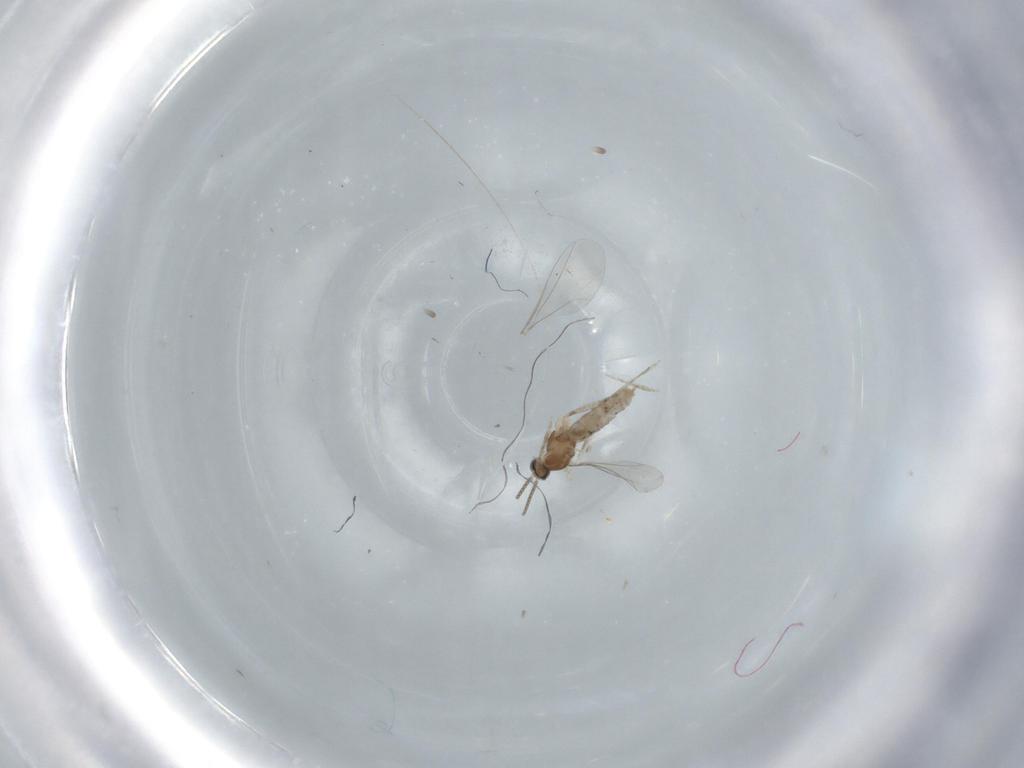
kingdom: Animalia
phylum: Arthropoda
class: Insecta
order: Diptera
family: Cecidomyiidae
